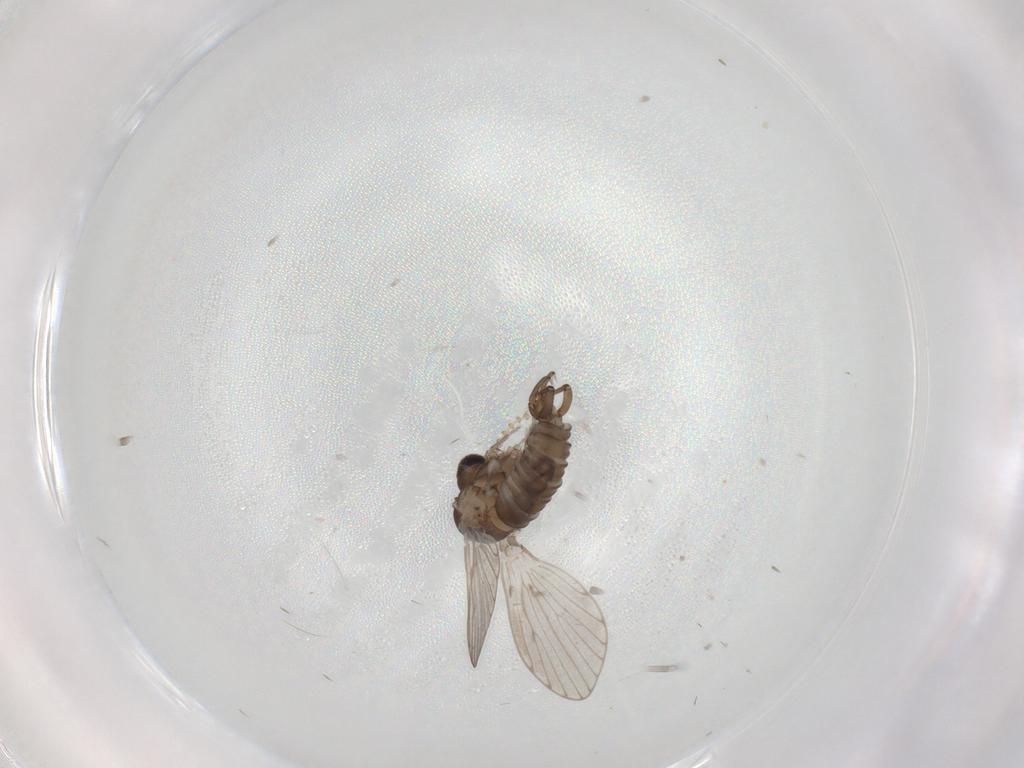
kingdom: Animalia
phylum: Arthropoda
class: Insecta
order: Diptera
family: Psychodidae
